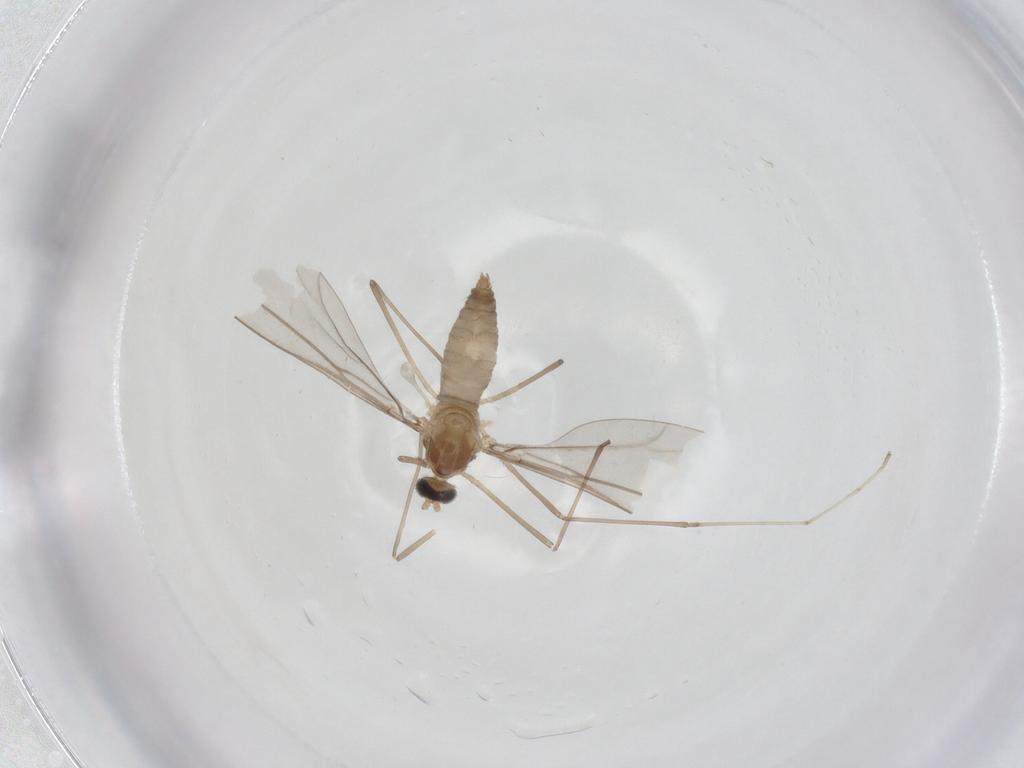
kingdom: Animalia
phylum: Arthropoda
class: Insecta
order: Diptera
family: Cecidomyiidae
